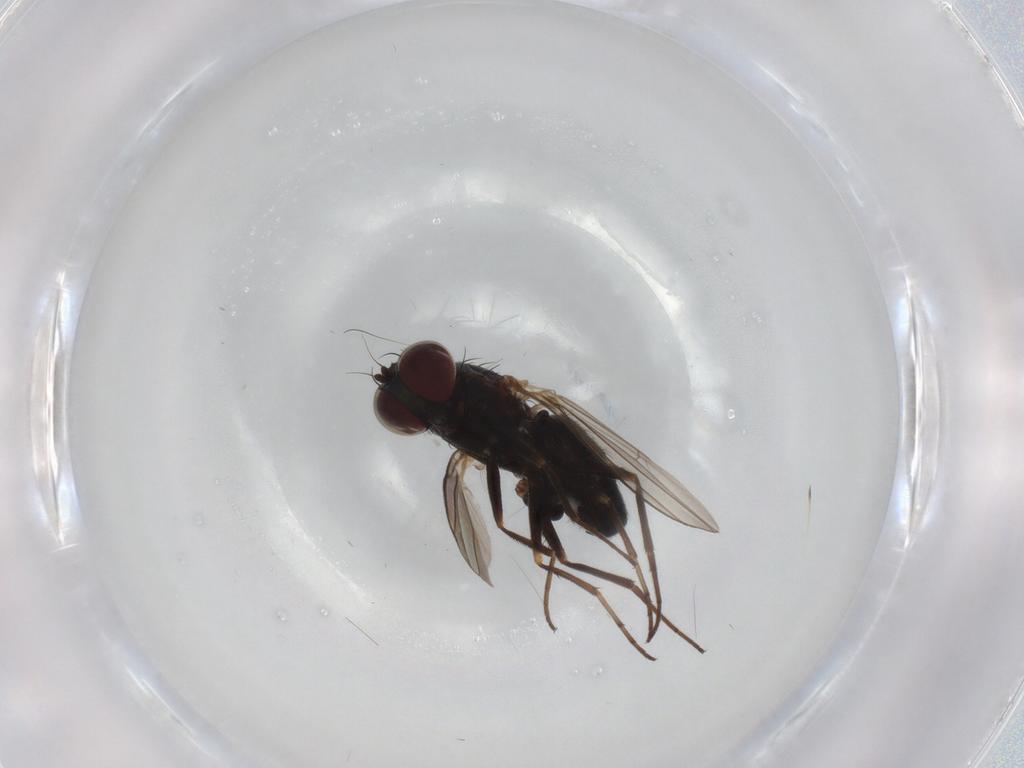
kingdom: Animalia
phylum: Arthropoda
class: Insecta
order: Diptera
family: Dolichopodidae
